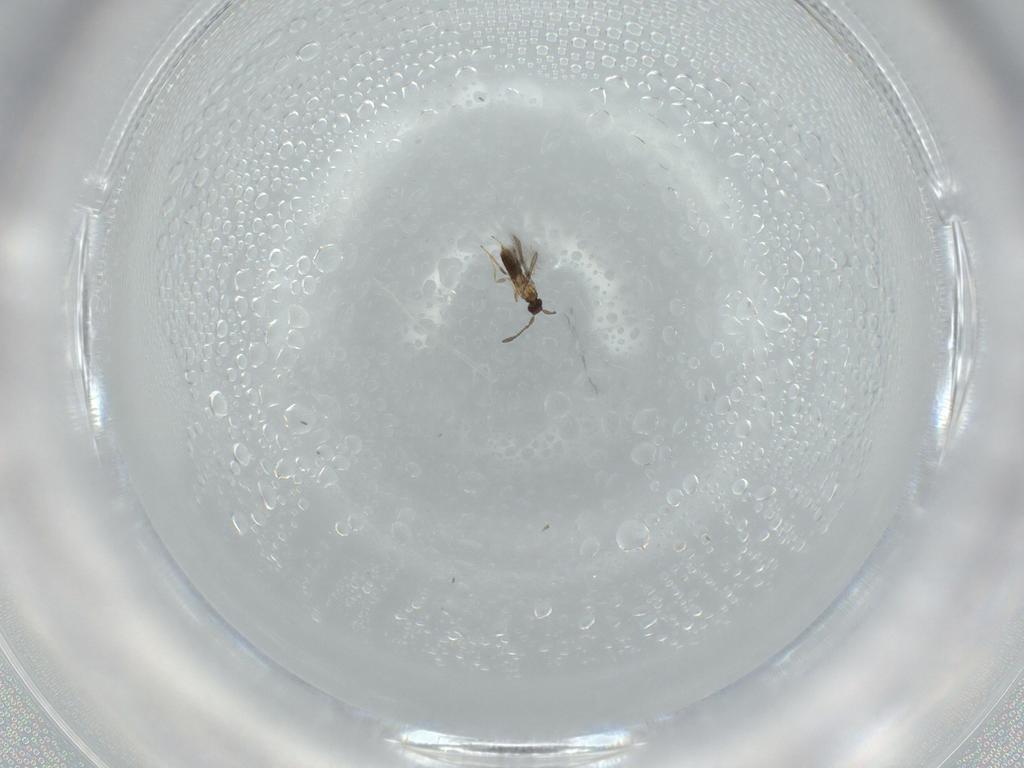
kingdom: Animalia
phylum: Arthropoda
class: Insecta
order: Hymenoptera
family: Mymaridae
